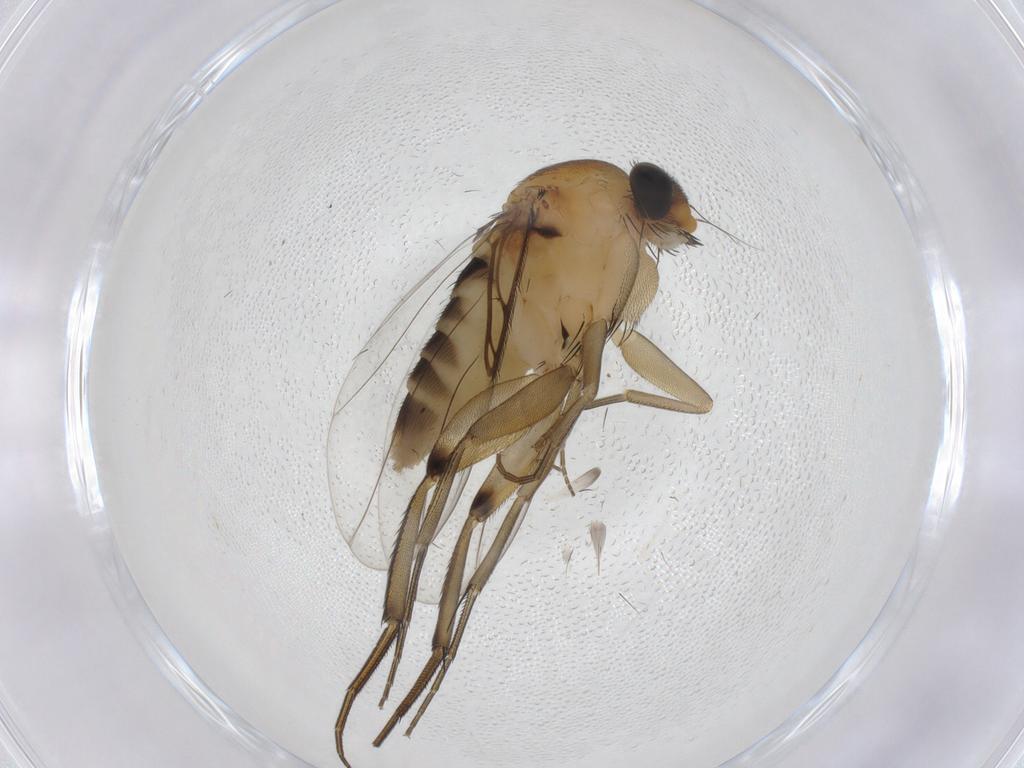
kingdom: Animalia
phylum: Arthropoda
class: Insecta
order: Diptera
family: Phoridae
